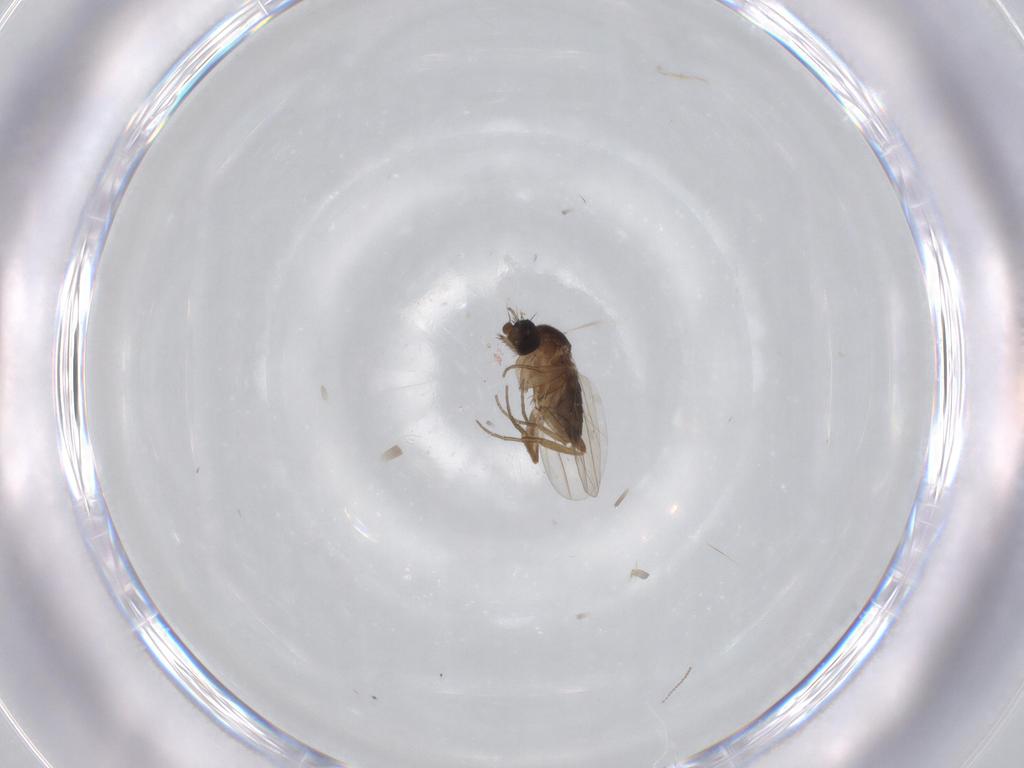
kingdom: Animalia
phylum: Arthropoda
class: Insecta
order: Diptera
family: Phoridae
